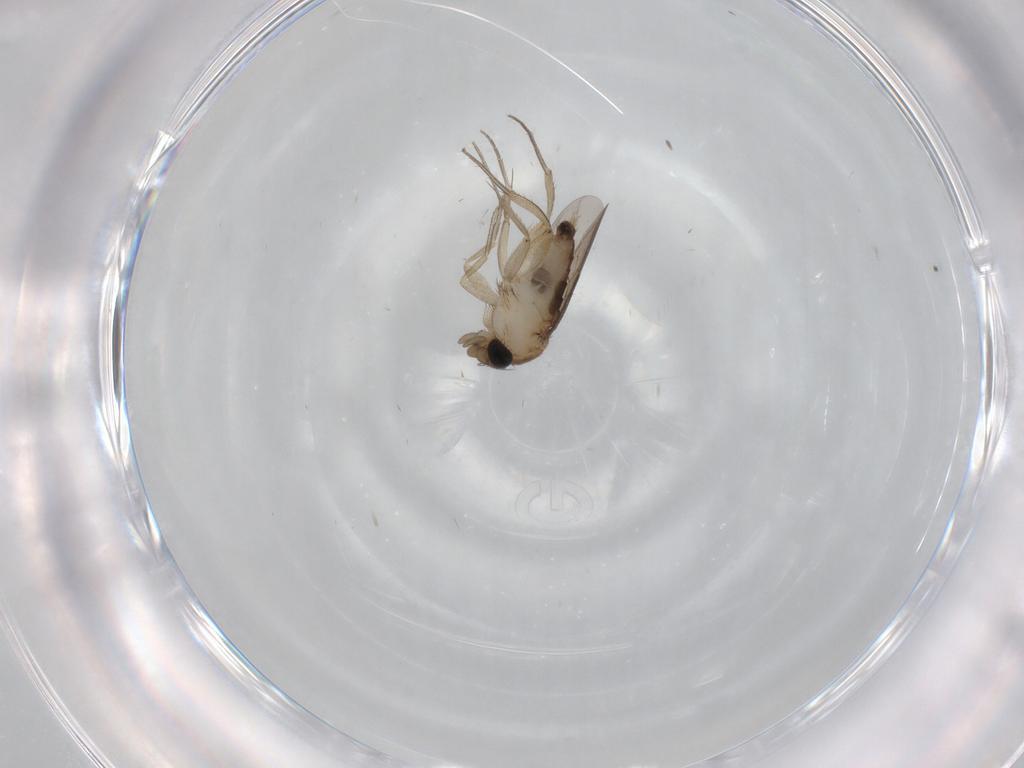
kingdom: Animalia
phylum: Arthropoda
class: Insecta
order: Diptera
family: Phoridae
